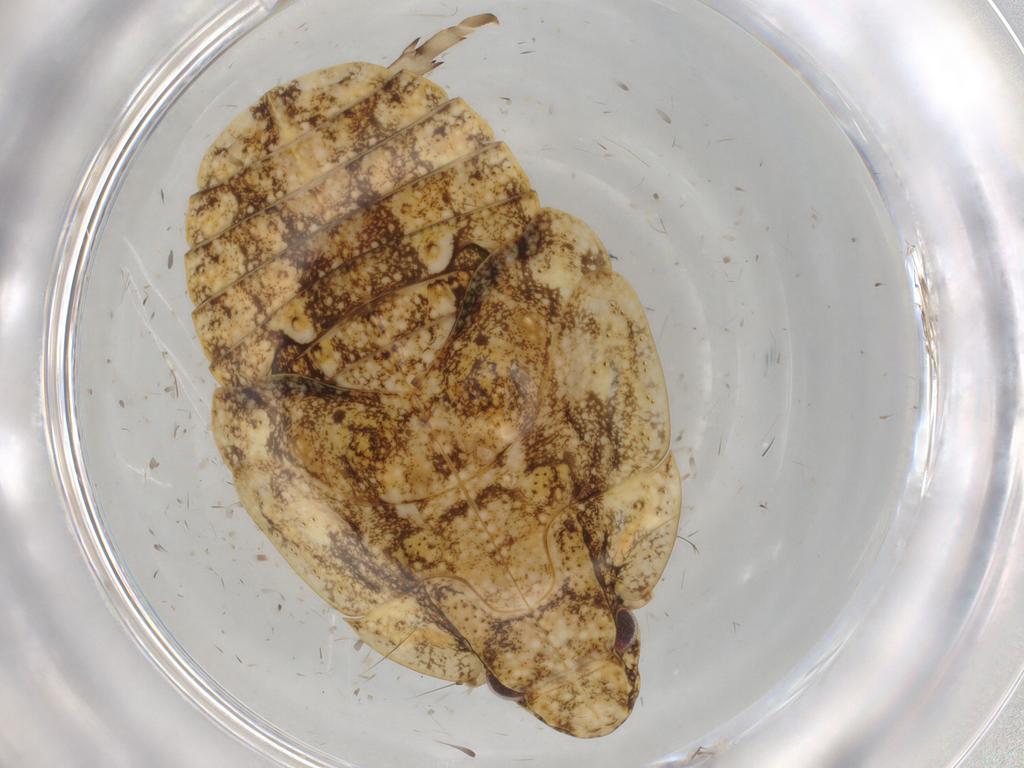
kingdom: Animalia
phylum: Arthropoda
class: Insecta
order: Hemiptera
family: Flatidae
